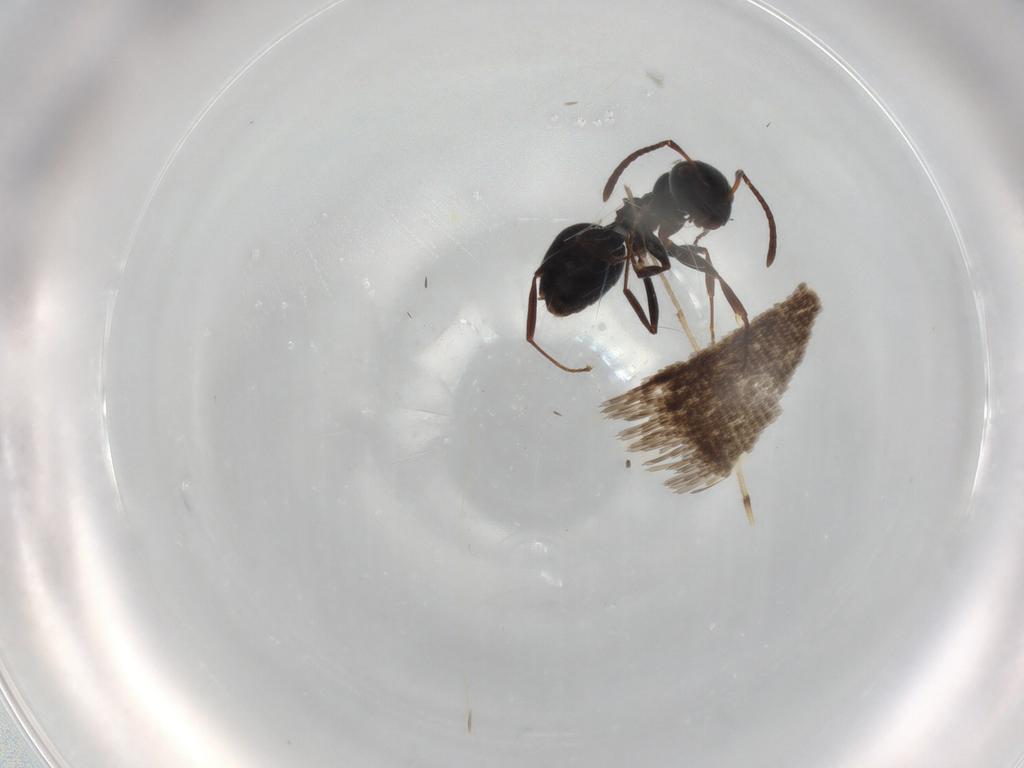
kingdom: Animalia
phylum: Arthropoda
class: Insecta
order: Hymenoptera
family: Formicidae
